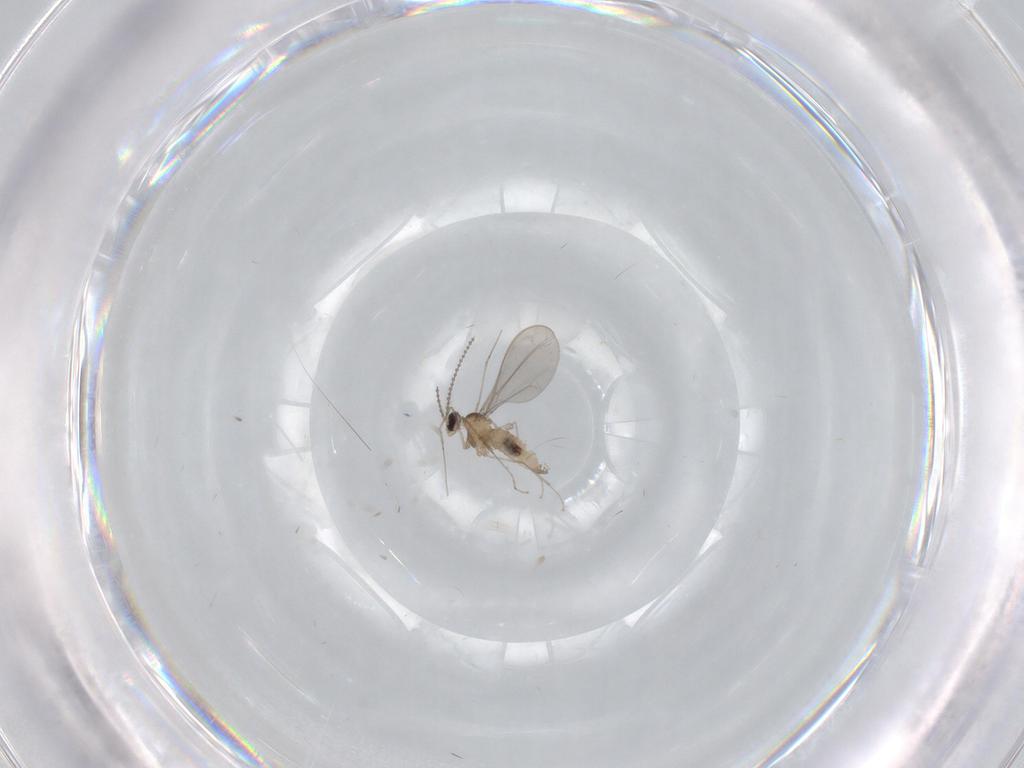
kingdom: Animalia
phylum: Arthropoda
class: Insecta
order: Diptera
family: Cecidomyiidae
